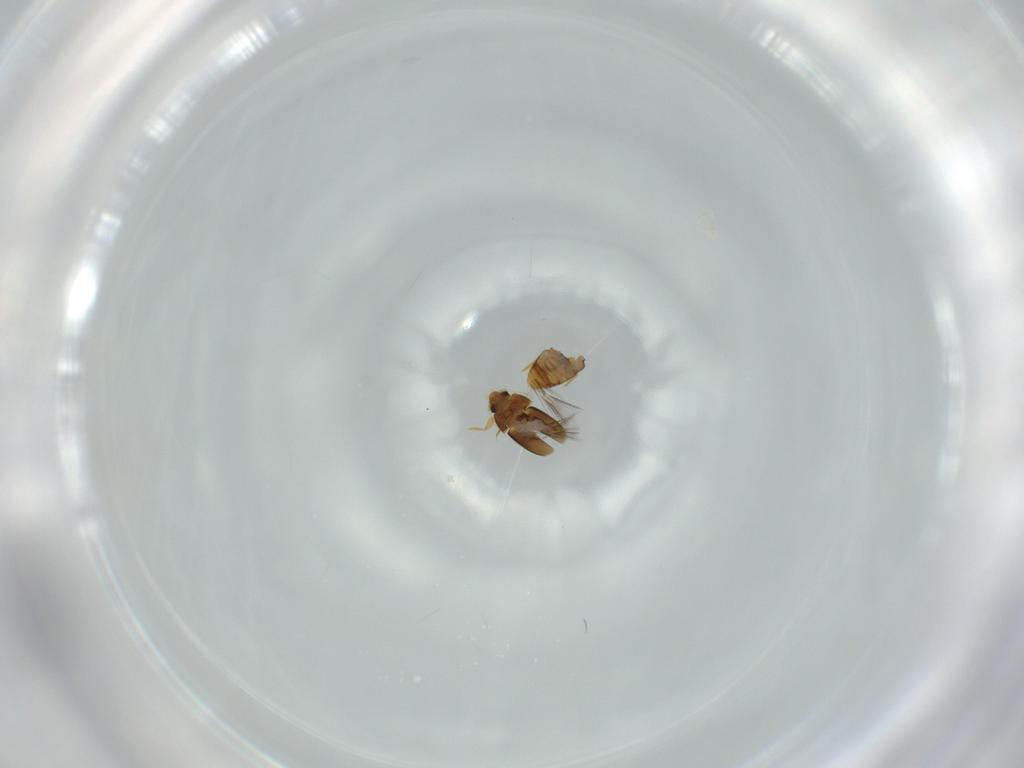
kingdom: Animalia
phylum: Arthropoda
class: Insecta
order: Coleoptera
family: Ptiliidae
